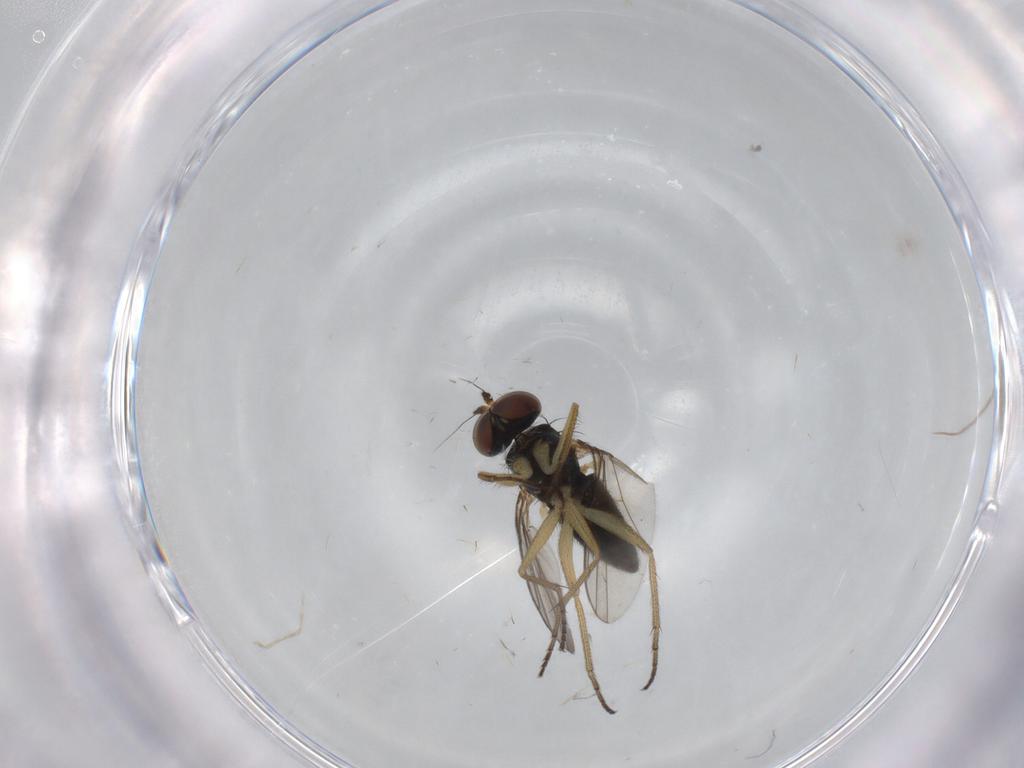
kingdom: Animalia
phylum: Arthropoda
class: Insecta
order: Diptera
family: Dolichopodidae
